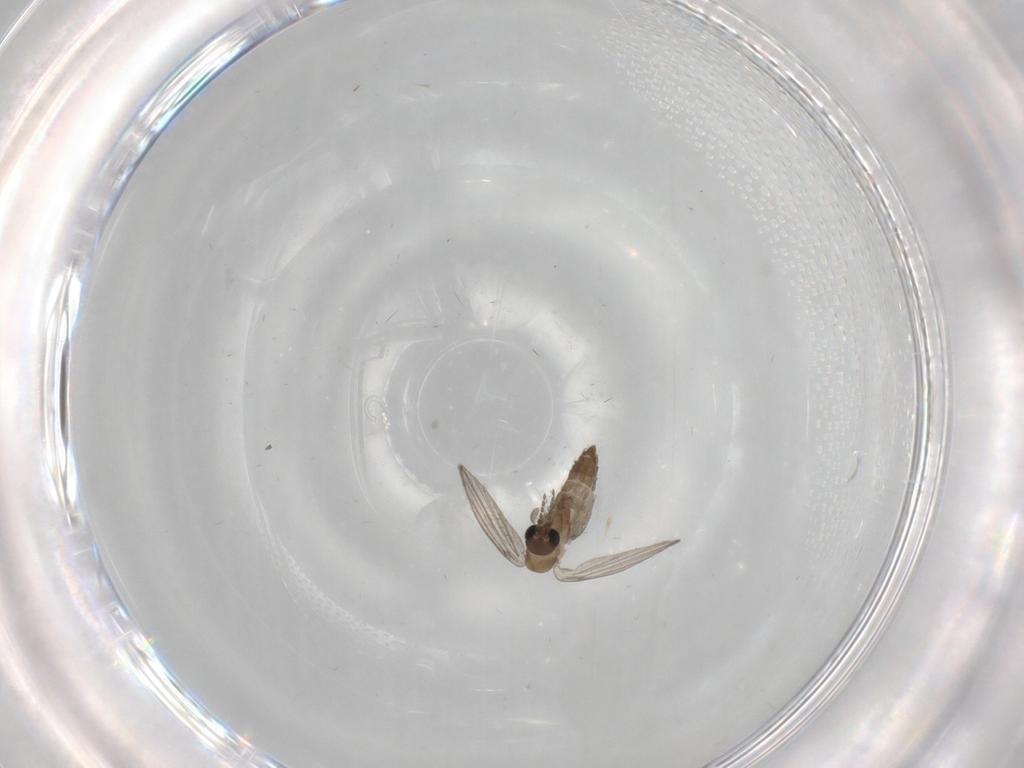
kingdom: Animalia
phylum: Arthropoda
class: Insecta
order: Diptera
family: Psychodidae
